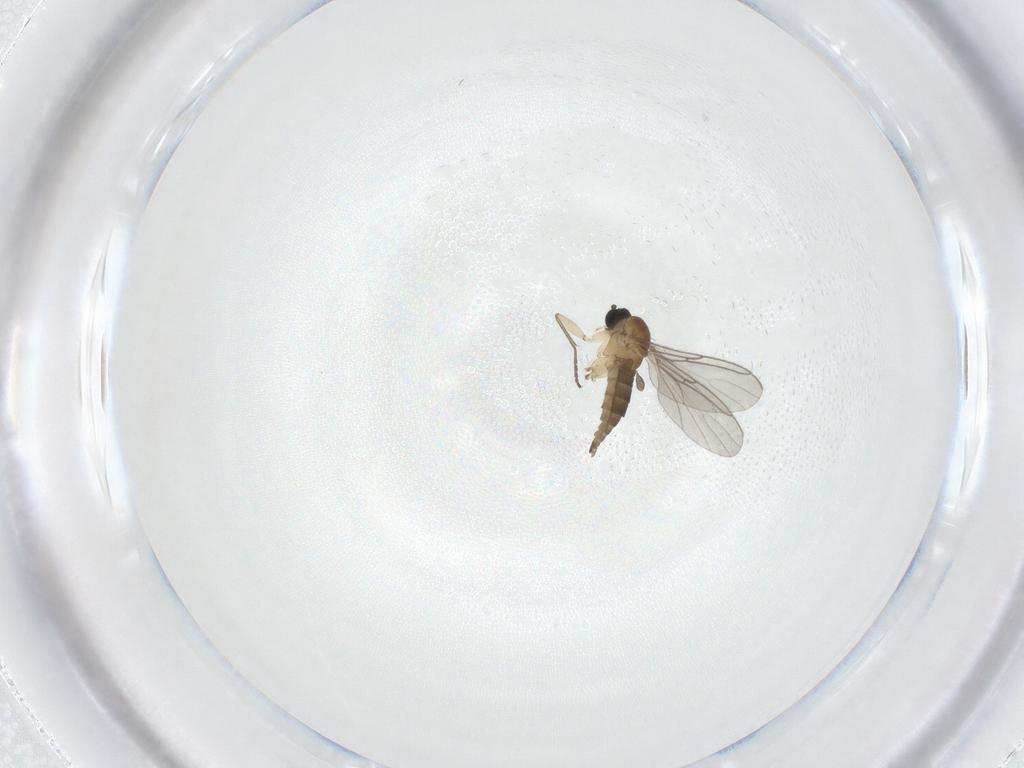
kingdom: Animalia
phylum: Arthropoda
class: Insecta
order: Diptera
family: Sciaridae
